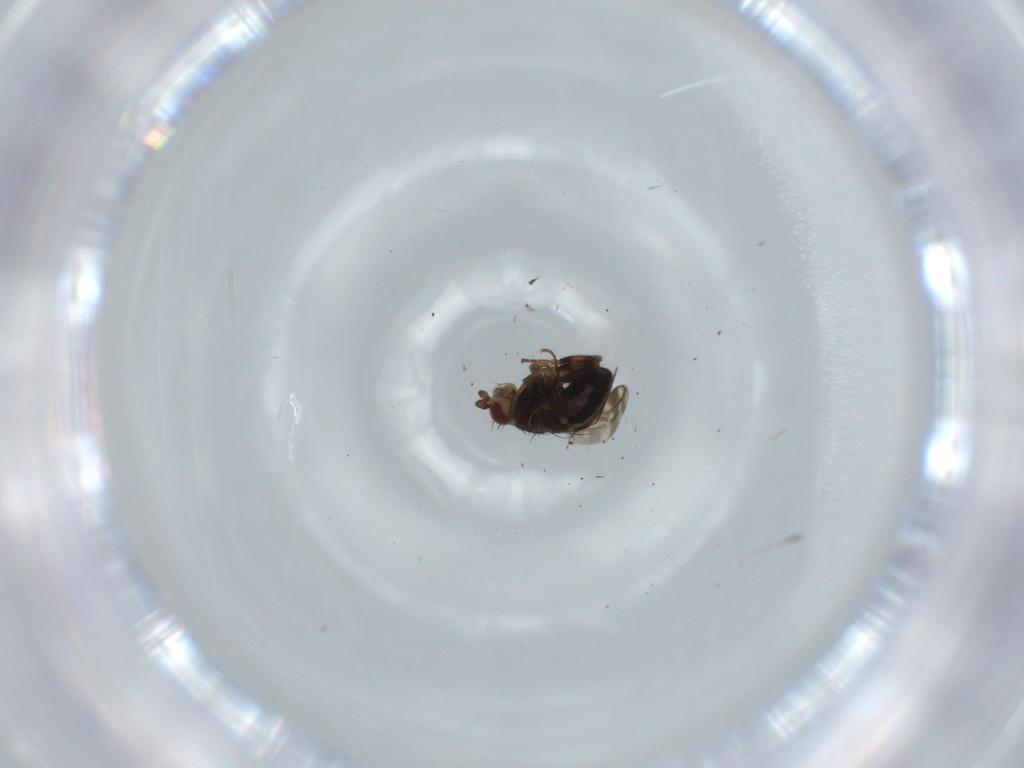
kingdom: Animalia
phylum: Arthropoda
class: Insecta
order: Diptera
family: Sphaeroceridae
